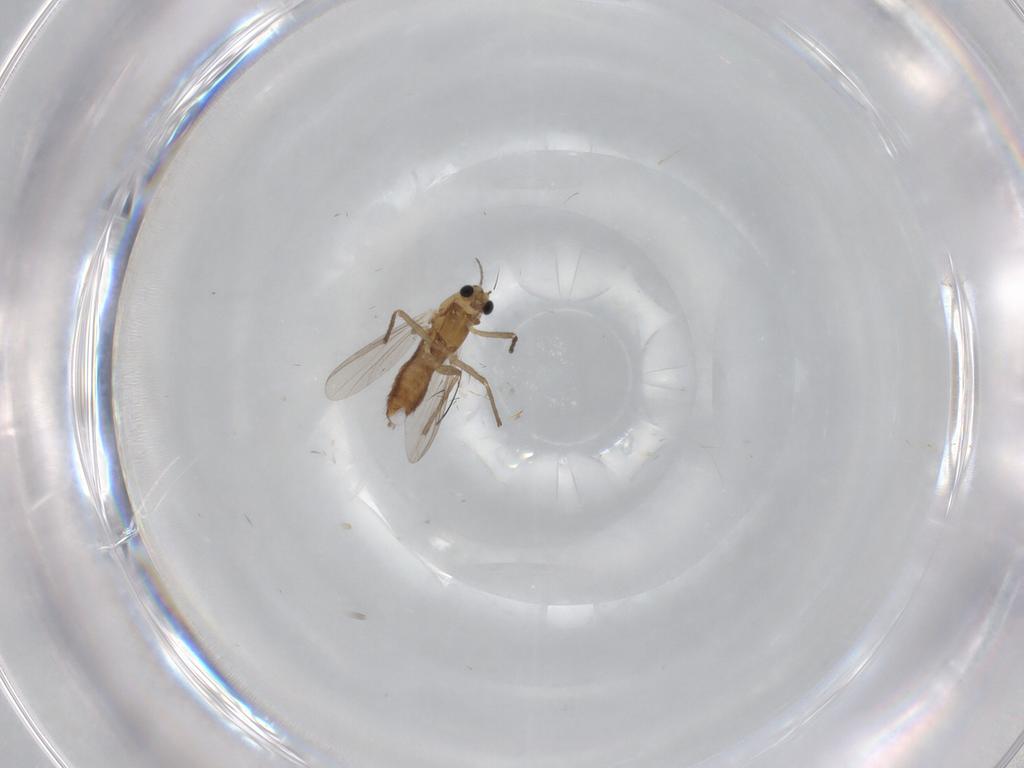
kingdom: Animalia
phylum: Arthropoda
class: Insecta
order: Diptera
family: Chironomidae
